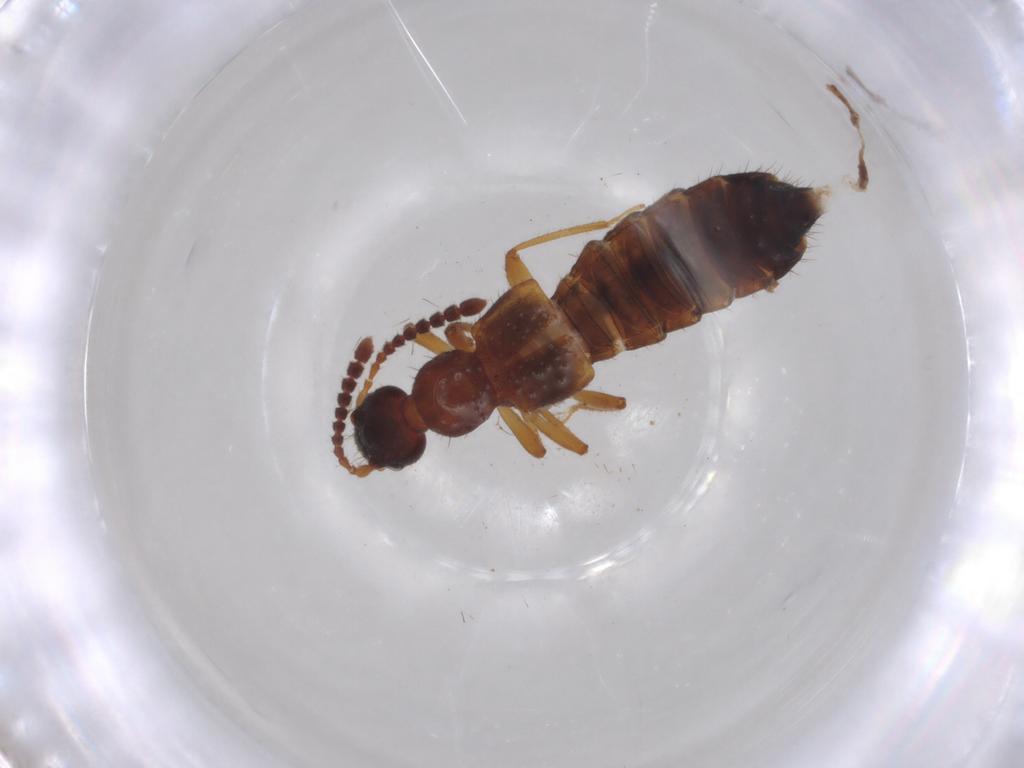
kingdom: Animalia
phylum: Arthropoda
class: Insecta
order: Coleoptera
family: Staphylinidae
